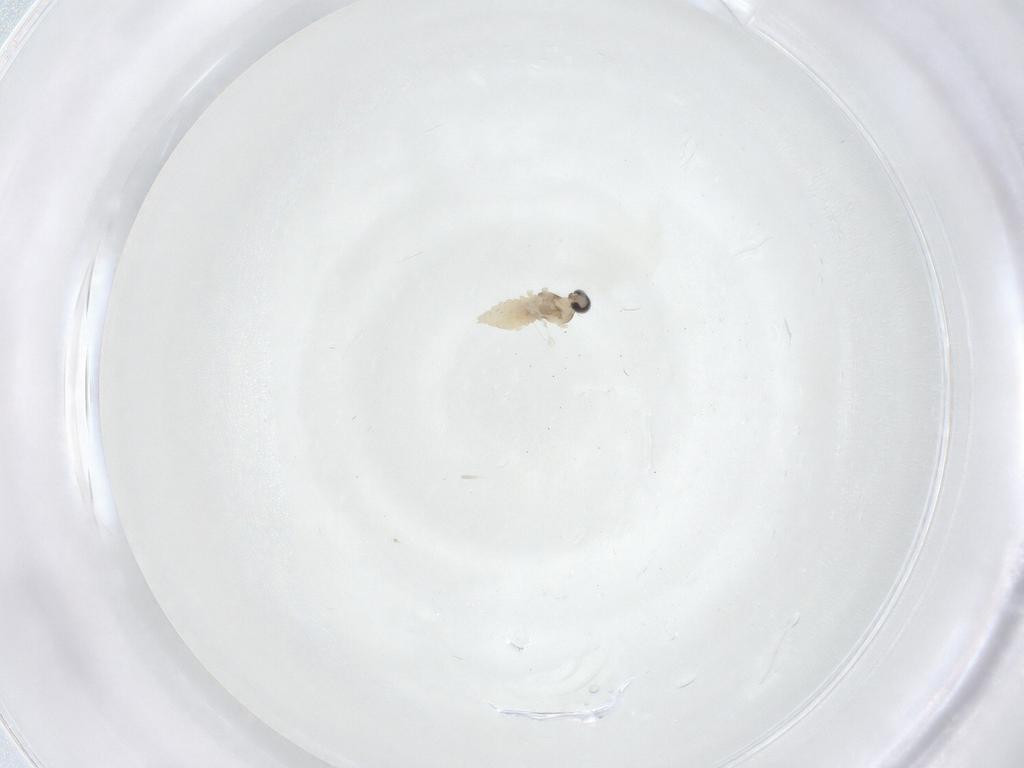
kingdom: Animalia
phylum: Arthropoda
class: Insecta
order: Diptera
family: Cecidomyiidae
